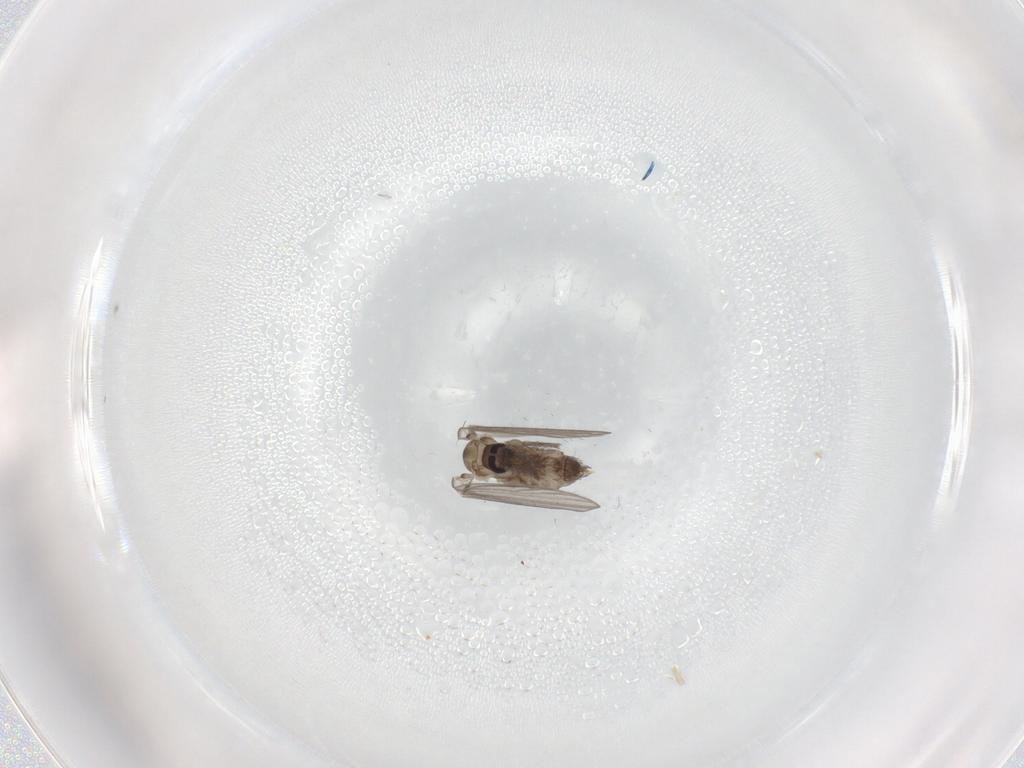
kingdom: Animalia
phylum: Arthropoda
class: Insecta
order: Diptera
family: Psychodidae
